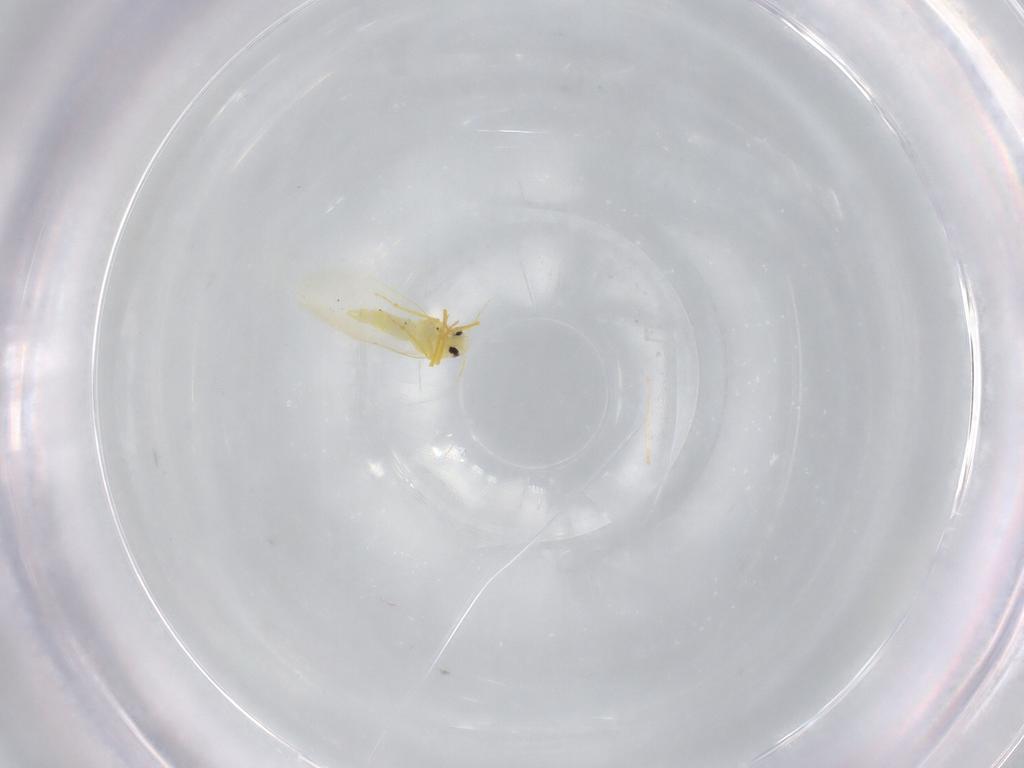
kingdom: Animalia
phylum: Arthropoda
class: Insecta
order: Hemiptera
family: Aleyrodidae
